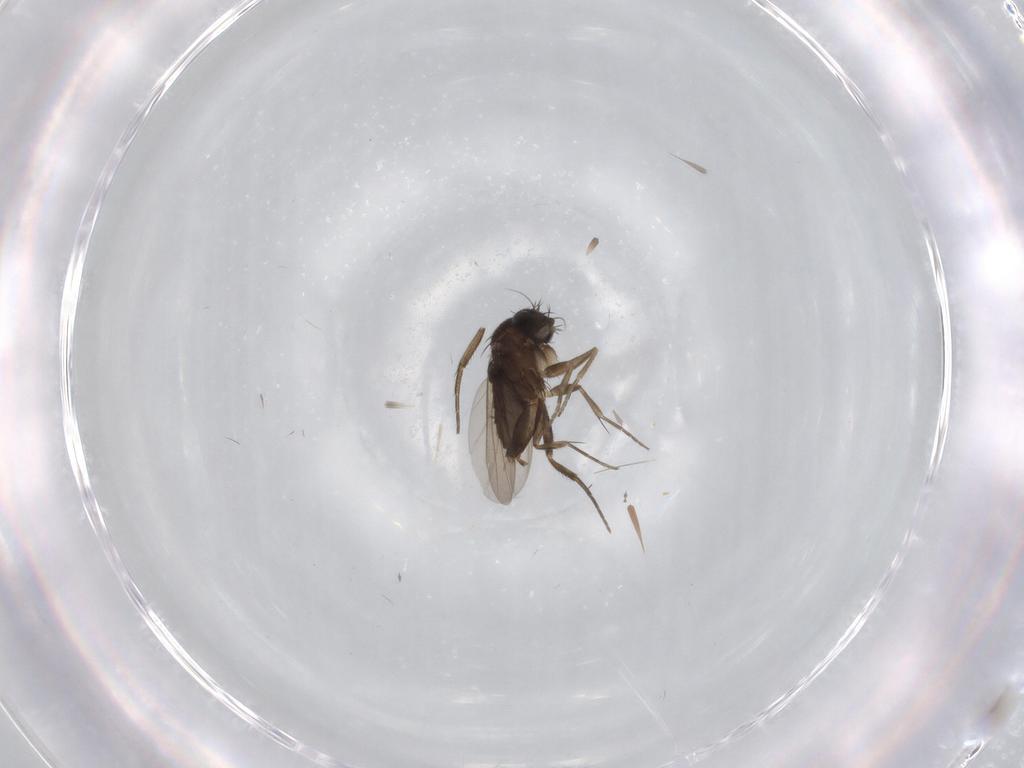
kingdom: Animalia
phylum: Arthropoda
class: Insecta
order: Diptera
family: Phoridae
